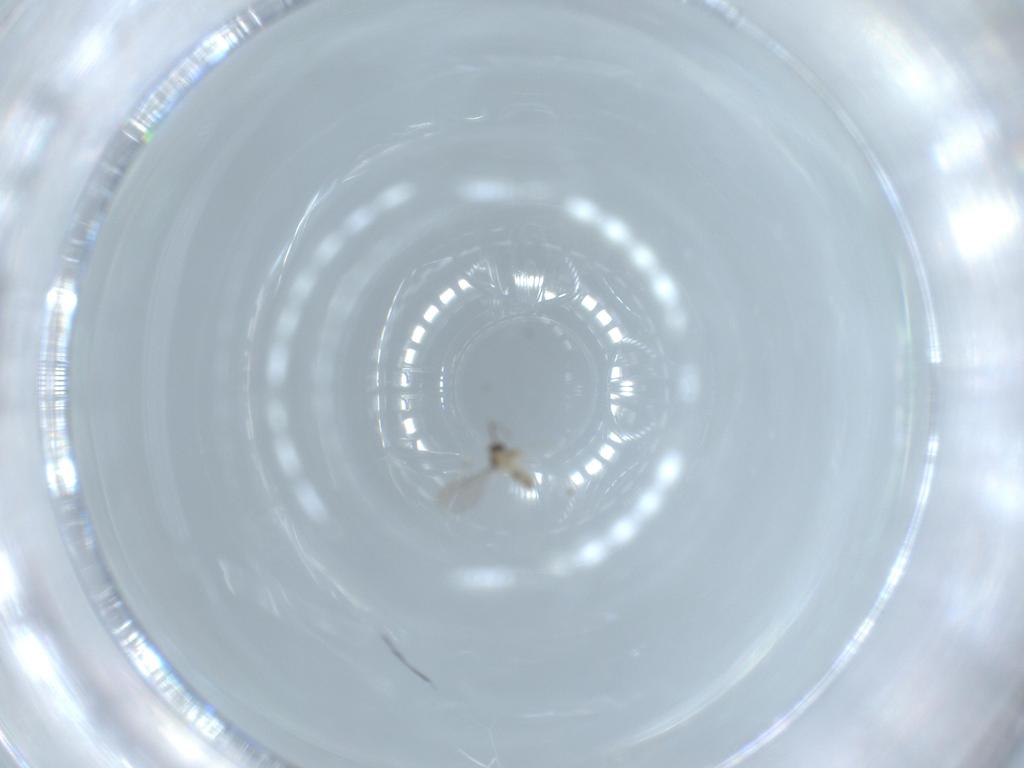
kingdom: Animalia
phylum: Arthropoda
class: Insecta
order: Diptera
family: Cecidomyiidae
